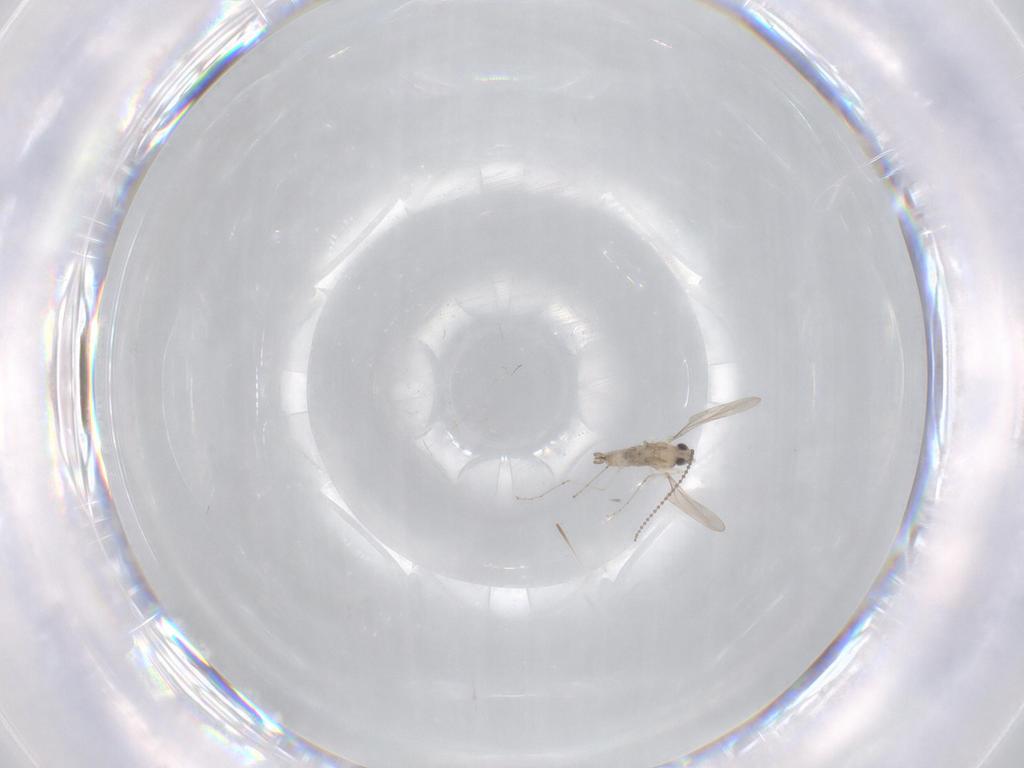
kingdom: Animalia
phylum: Arthropoda
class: Insecta
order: Diptera
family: Cecidomyiidae
